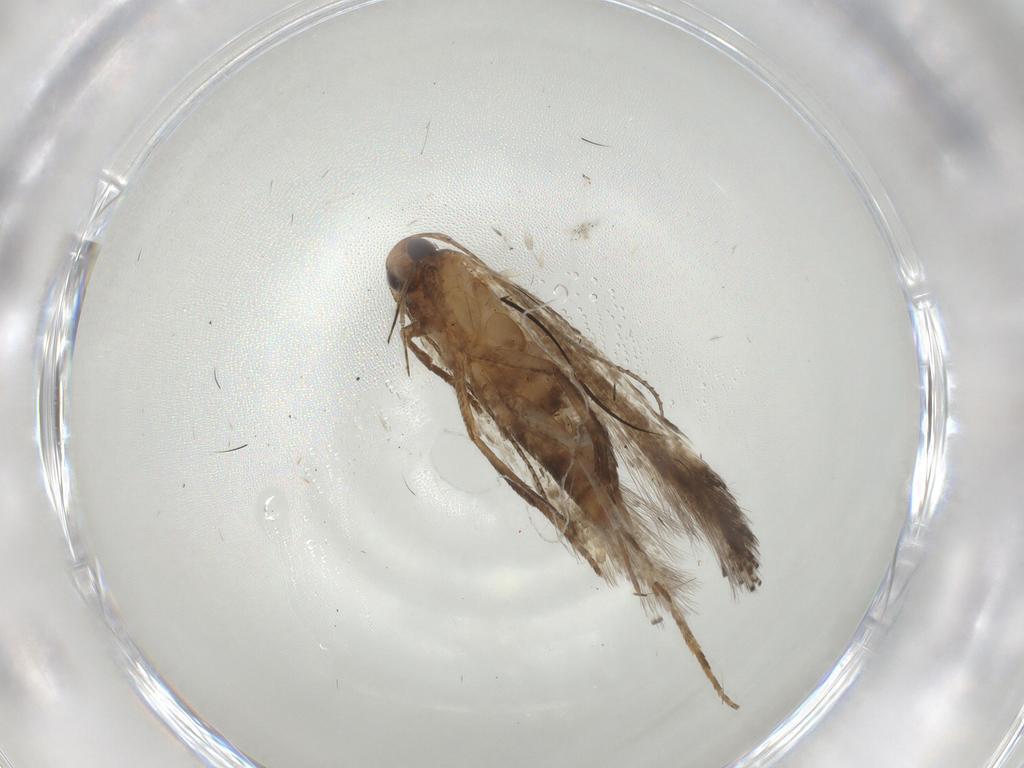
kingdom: Animalia
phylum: Arthropoda
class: Insecta
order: Lepidoptera
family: Gelechiidae
